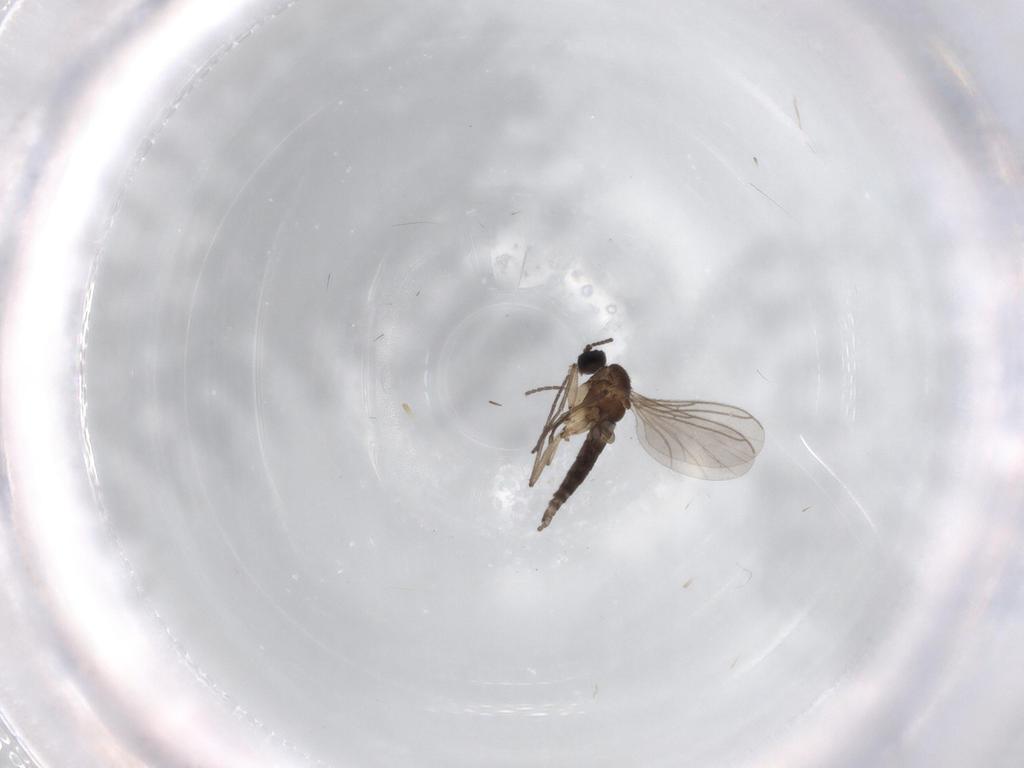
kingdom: Animalia
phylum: Arthropoda
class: Insecta
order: Diptera
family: Sciaridae
